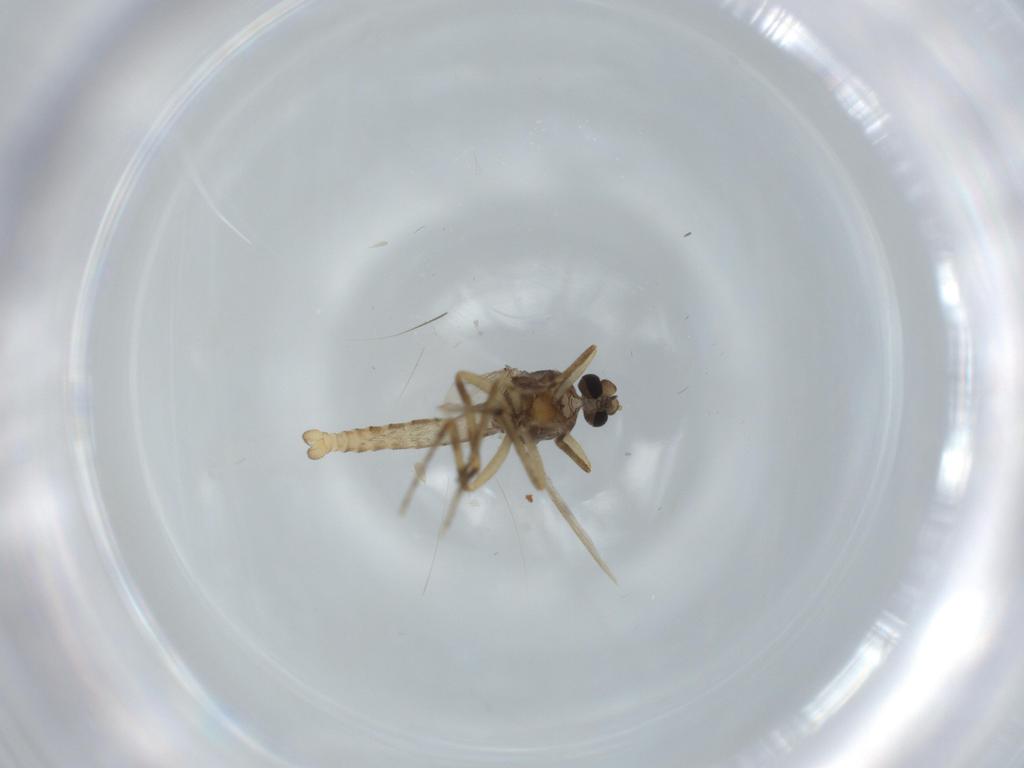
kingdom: Animalia
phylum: Arthropoda
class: Insecta
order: Diptera
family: Ceratopogonidae
